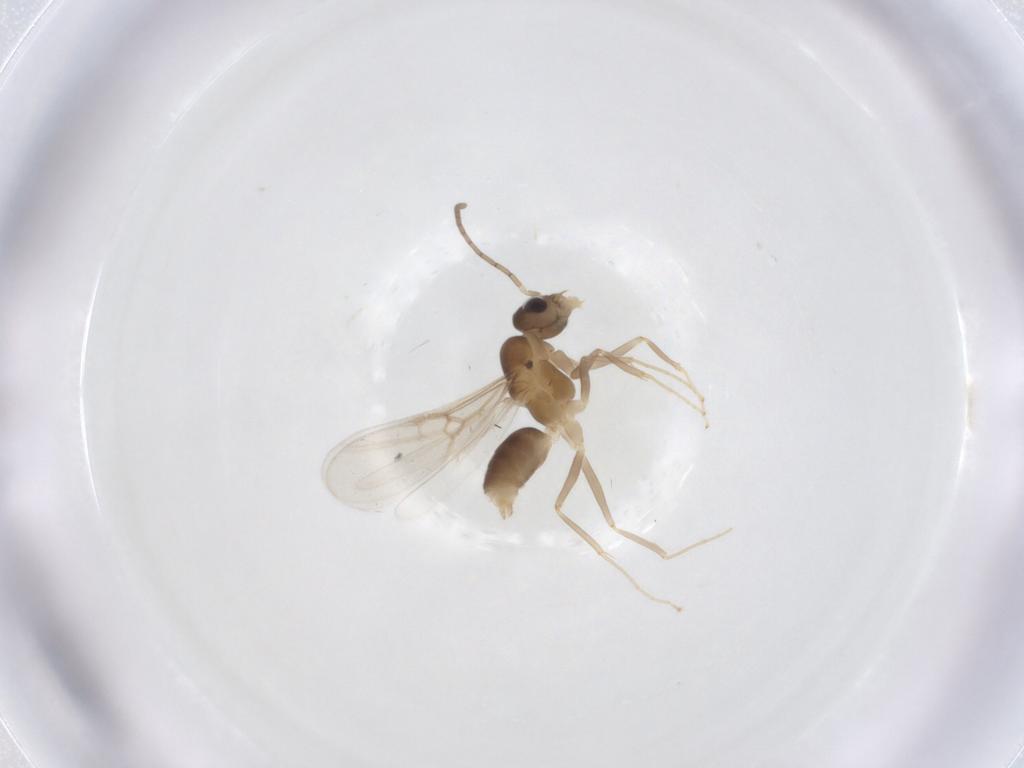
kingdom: Animalia
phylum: Arthropoda
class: Insecta
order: Hymenoptera
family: Formicidae
